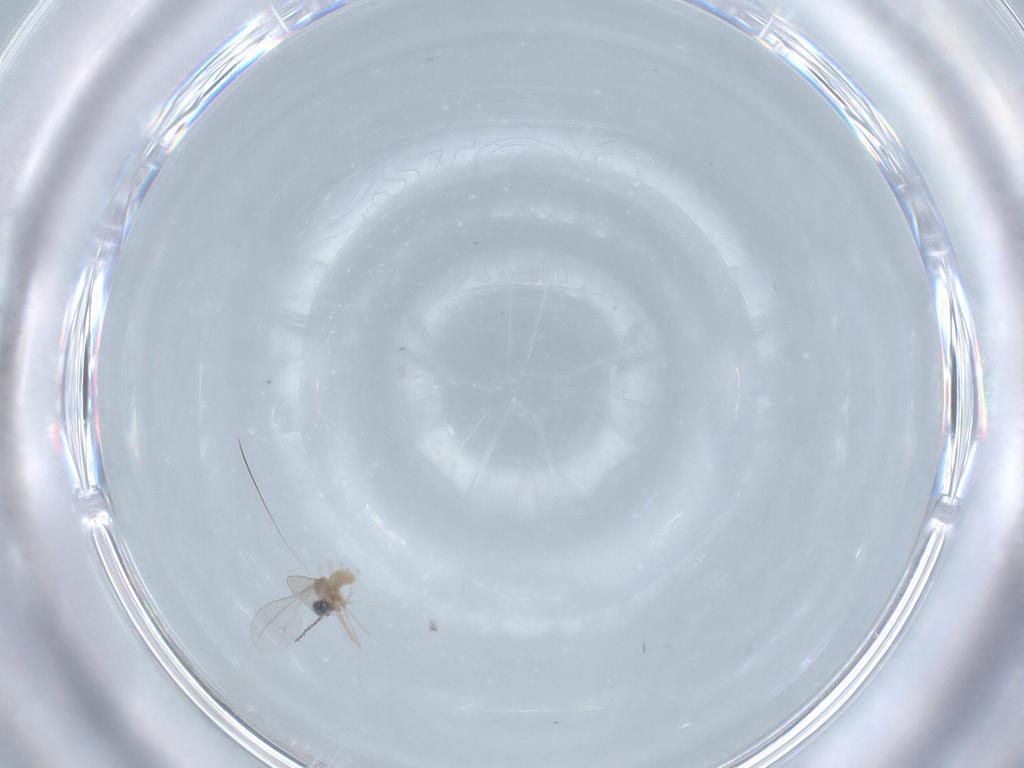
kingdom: Animalia
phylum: Arthropoda
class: Insecta
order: Diptera
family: Cecidomyiidae
